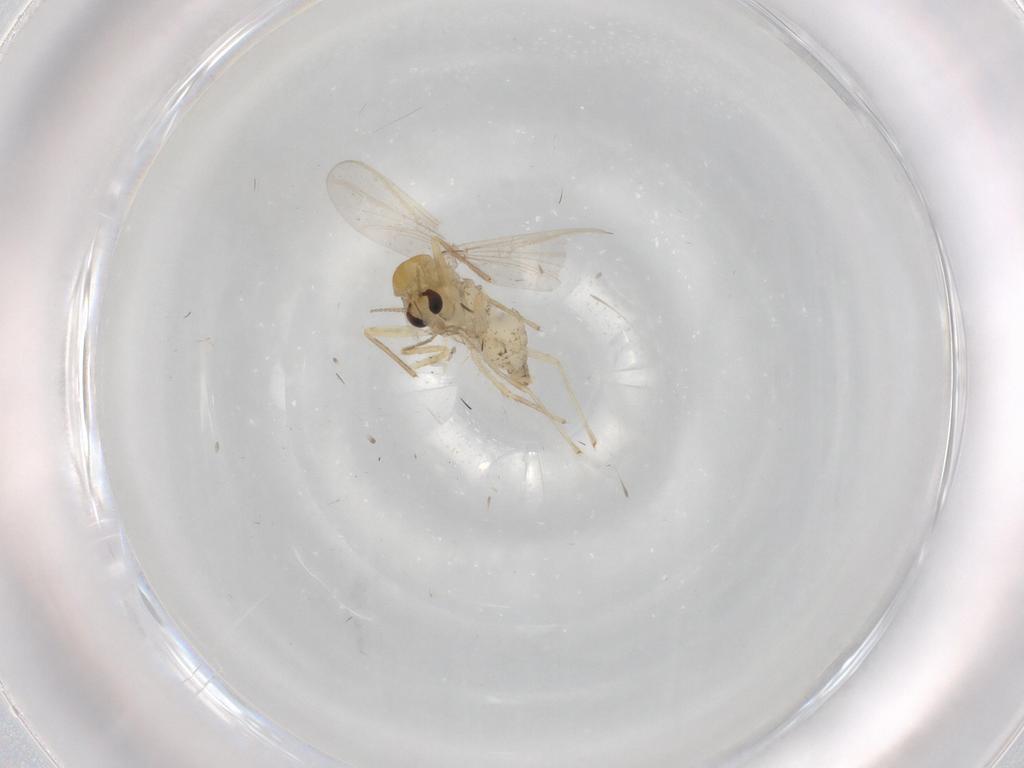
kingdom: Animalia
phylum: Arthropoda
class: Insecta
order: Diptera
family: Chironomidae
